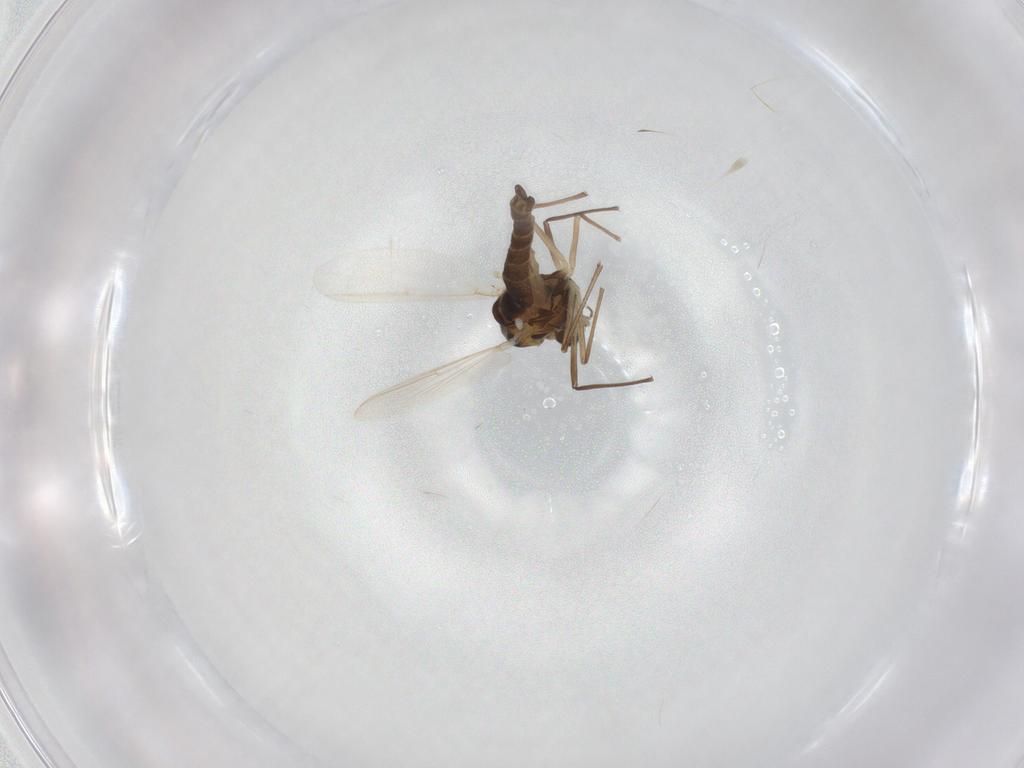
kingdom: Animalia
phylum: Arthropoda
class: Insecta
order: Diptera
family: Chironomidae
